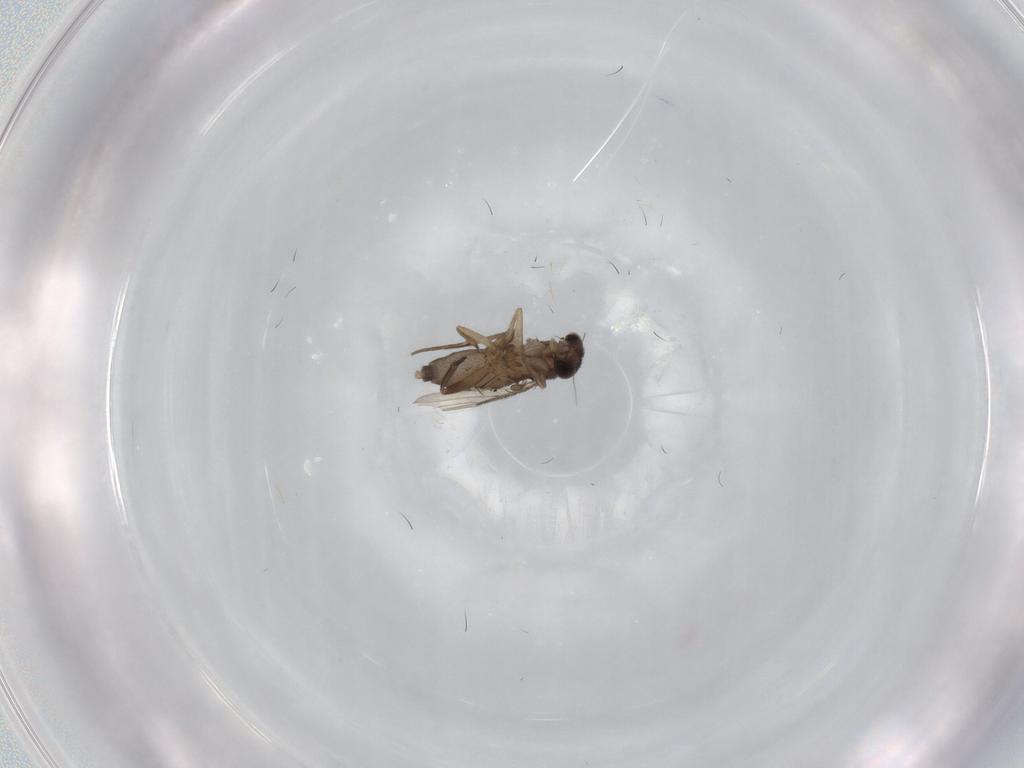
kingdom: Animalia
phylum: Arthropoda
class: Insecta
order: Diptera
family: Phoridae
